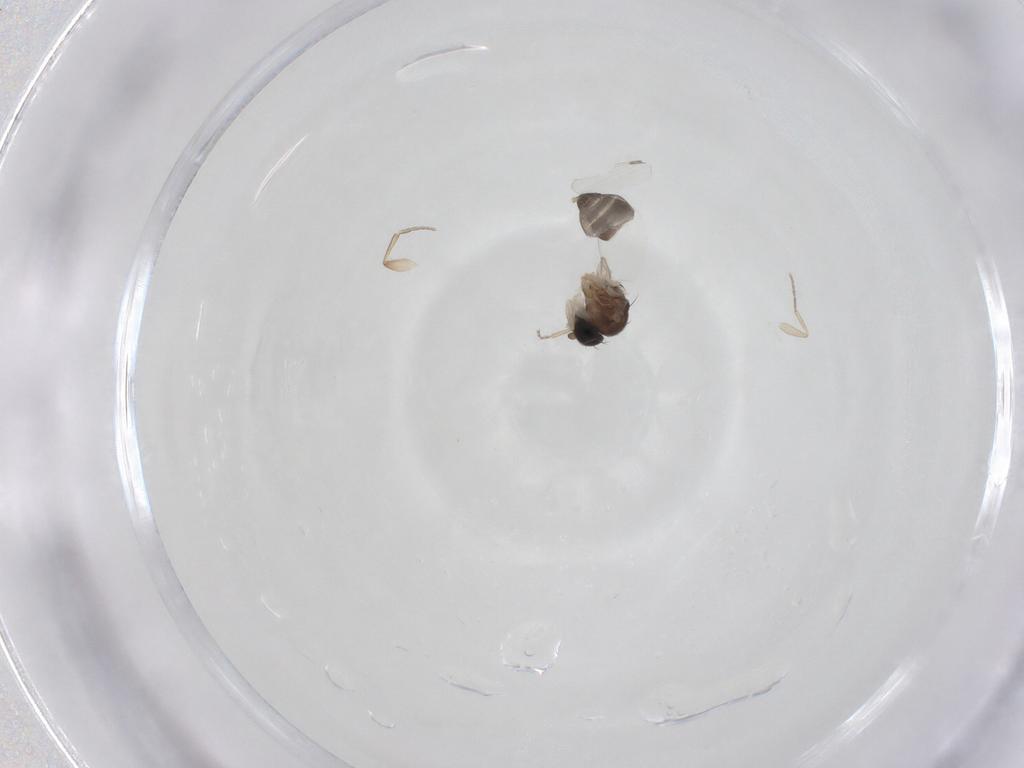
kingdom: Animalia
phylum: Arthropoda
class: Insecta
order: Diptera
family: Phoridae
